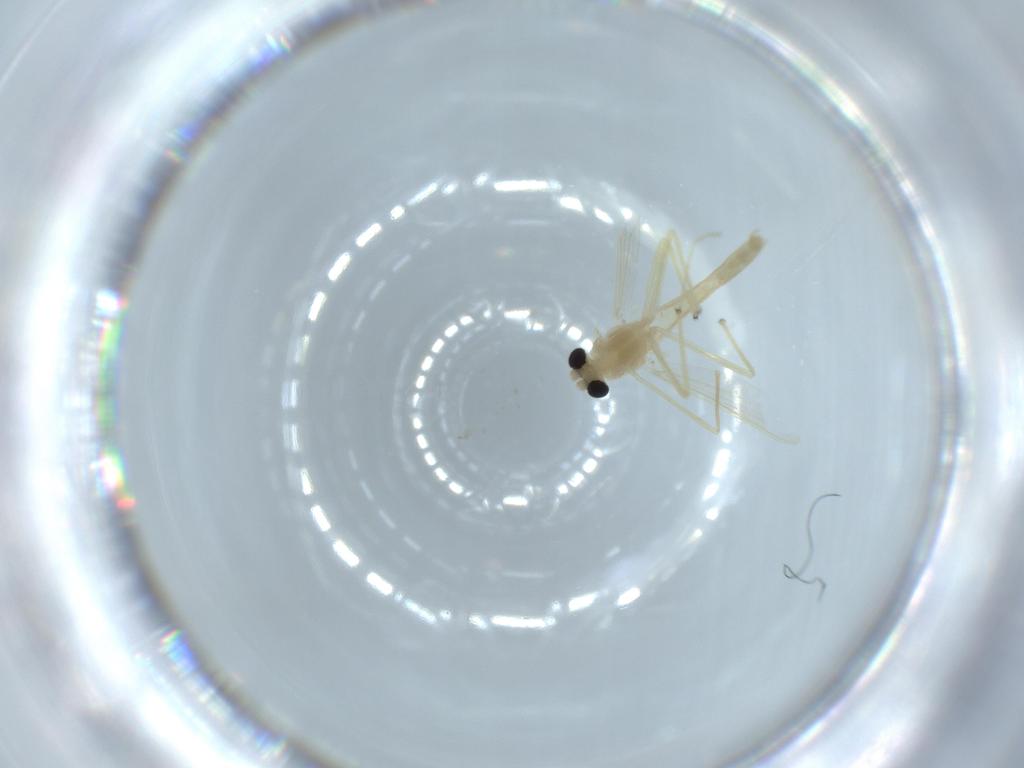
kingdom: Animalia
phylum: Arthropoda
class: Insecta
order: Diptera
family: Chironomidae
